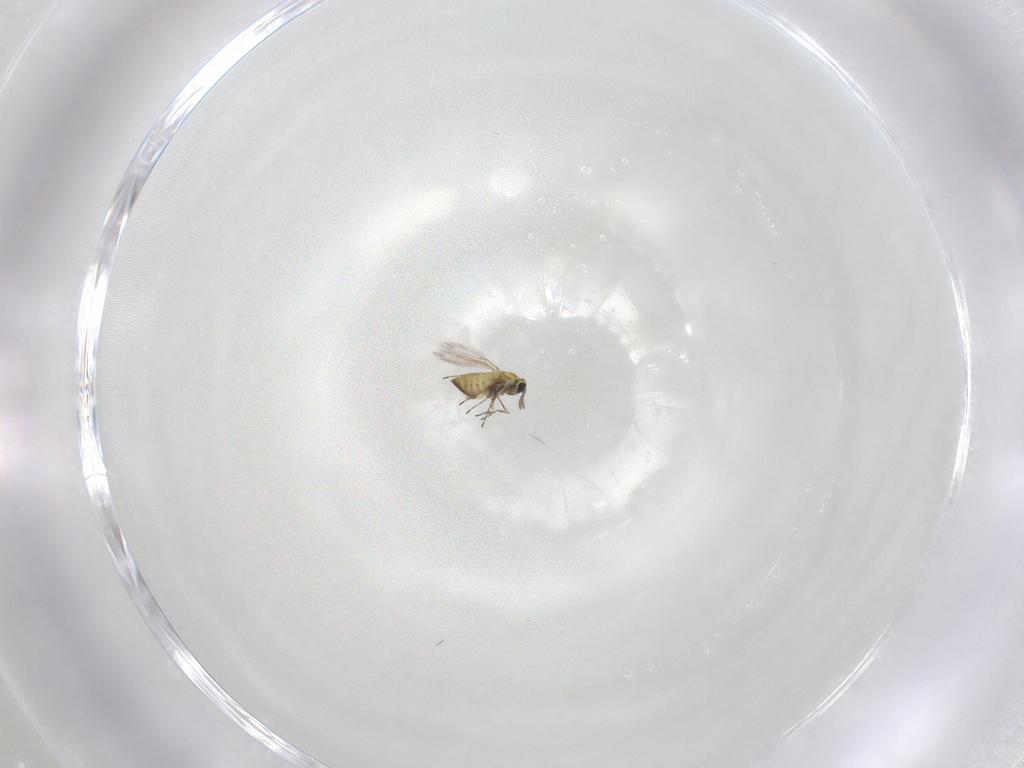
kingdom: Animalia
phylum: Arthropoda
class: Insecta
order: Hymenoptera
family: Trichogrammatidae
